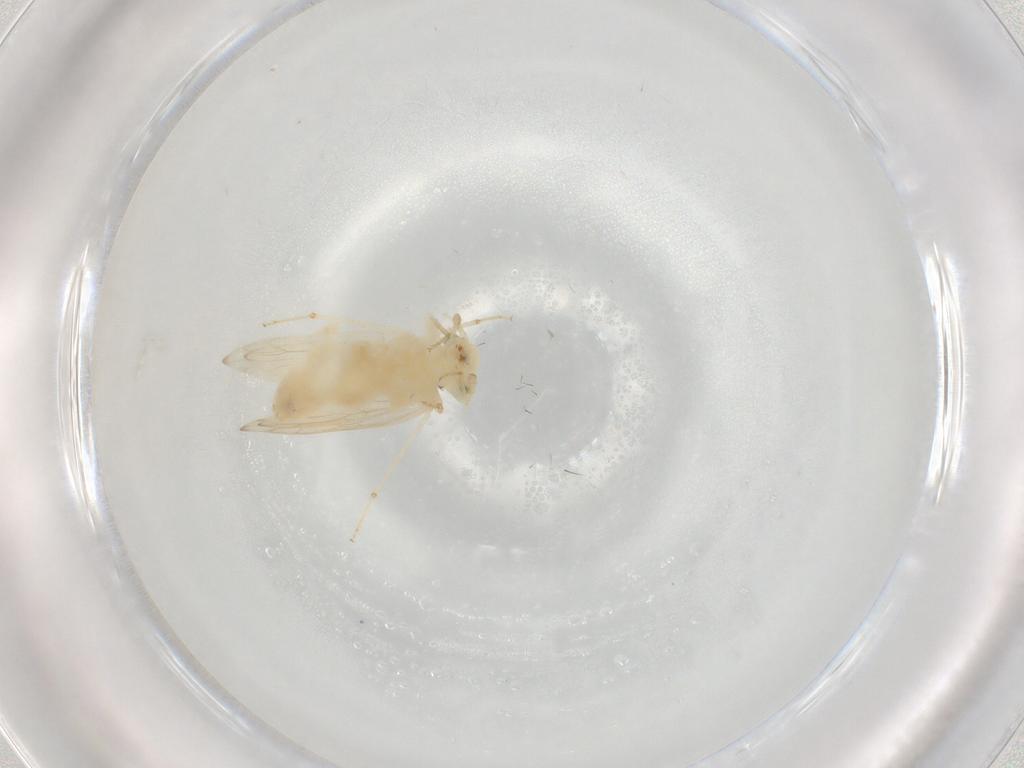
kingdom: Animalia
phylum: Arthropoda
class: Insecta
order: Psocodea
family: Lepidopsocidae
